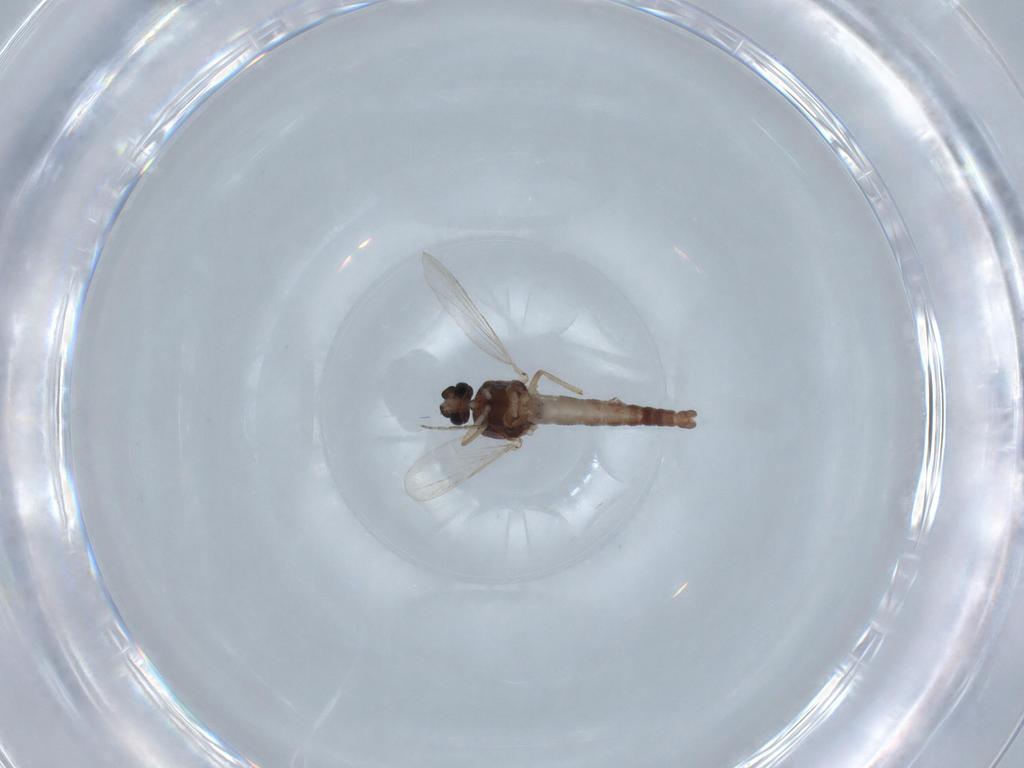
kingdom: Animalia
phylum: Arthropoda
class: Insecta
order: Diptera
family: Ceratopogonidae
